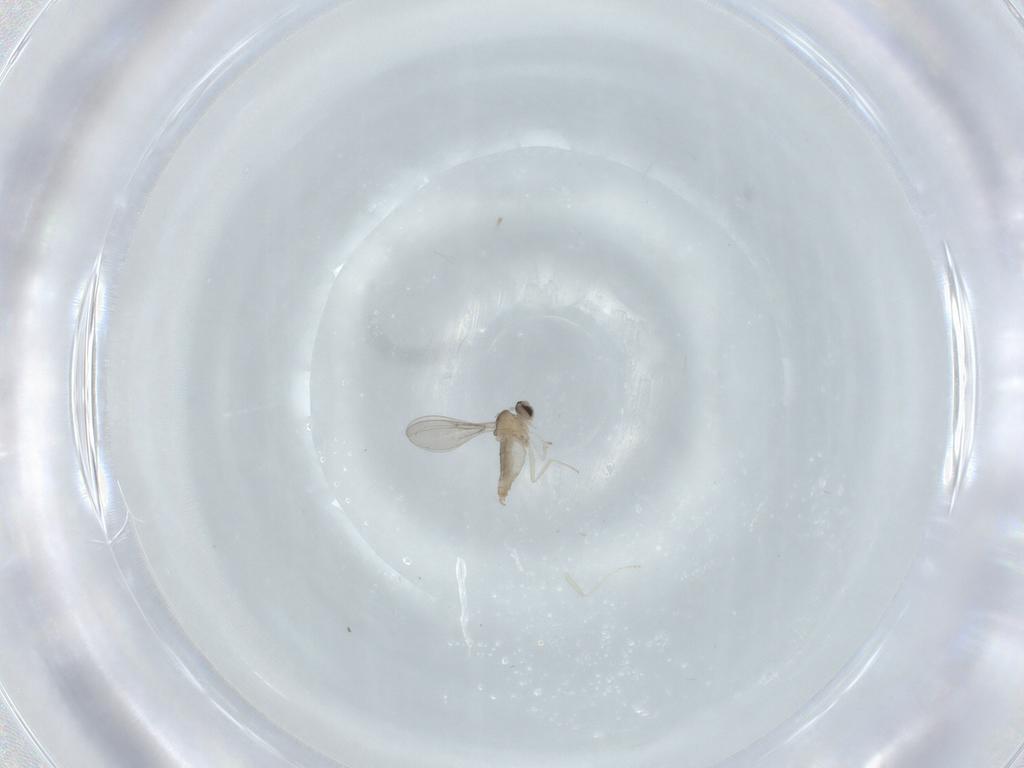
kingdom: Animalia
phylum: Arthropoda
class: Insecta
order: Diptera
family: Cecidomyiidae
